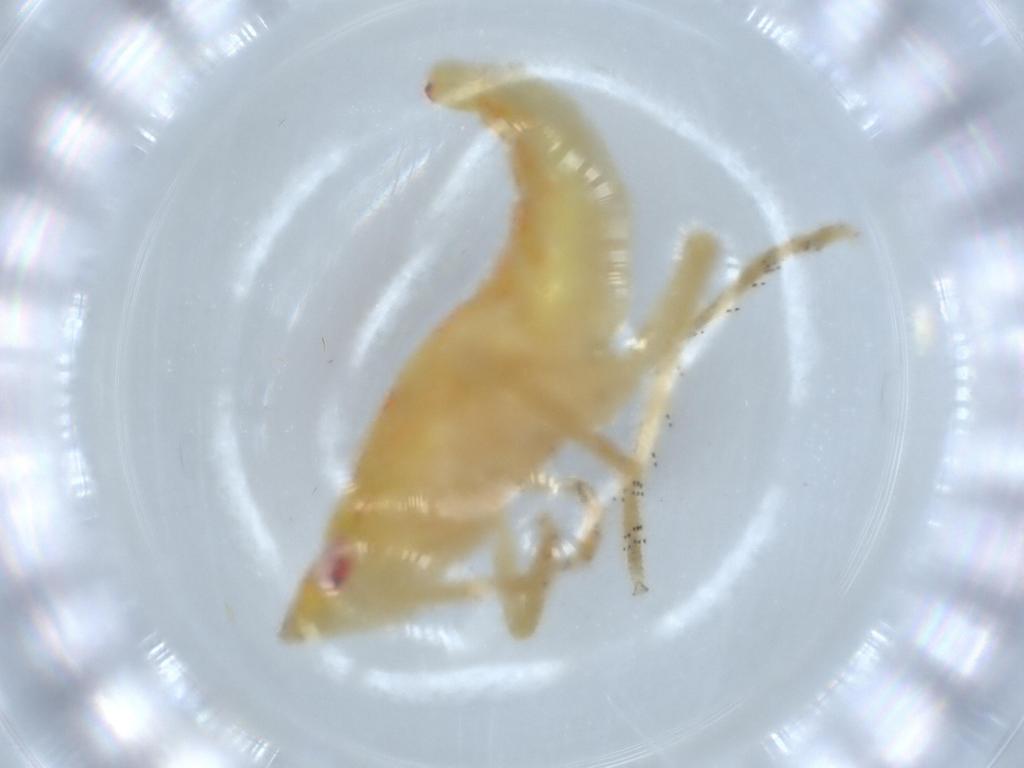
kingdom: Animalia
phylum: Arthropoda
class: Insecta
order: Hemiptera
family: Tropiduchidae
